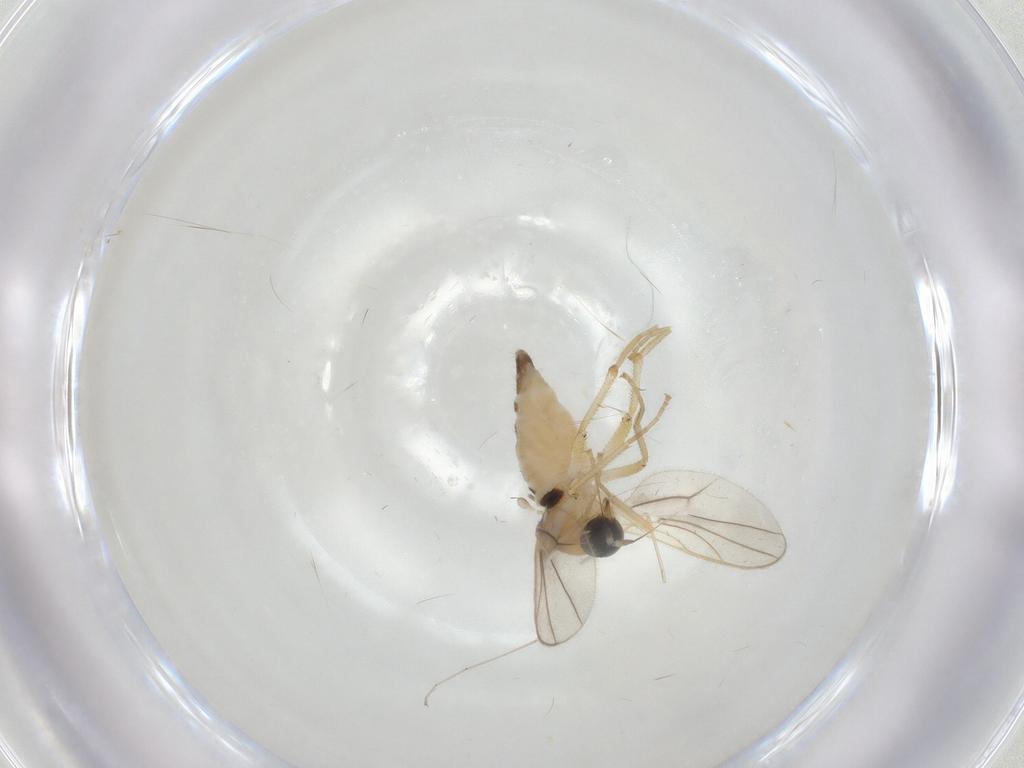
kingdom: Animalia
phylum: Arthropoda
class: Insecta
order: Diptera
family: Hybotidae
